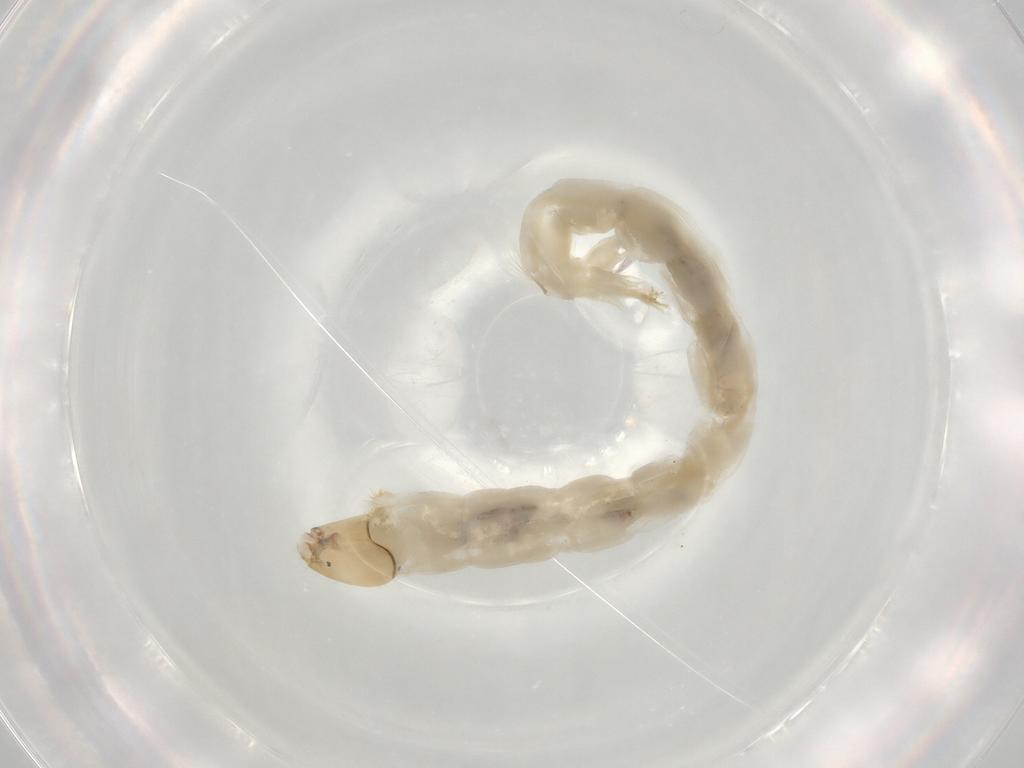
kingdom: Animalia
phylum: Arthropoda
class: Insecta
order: Diptera
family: Chironomidae
